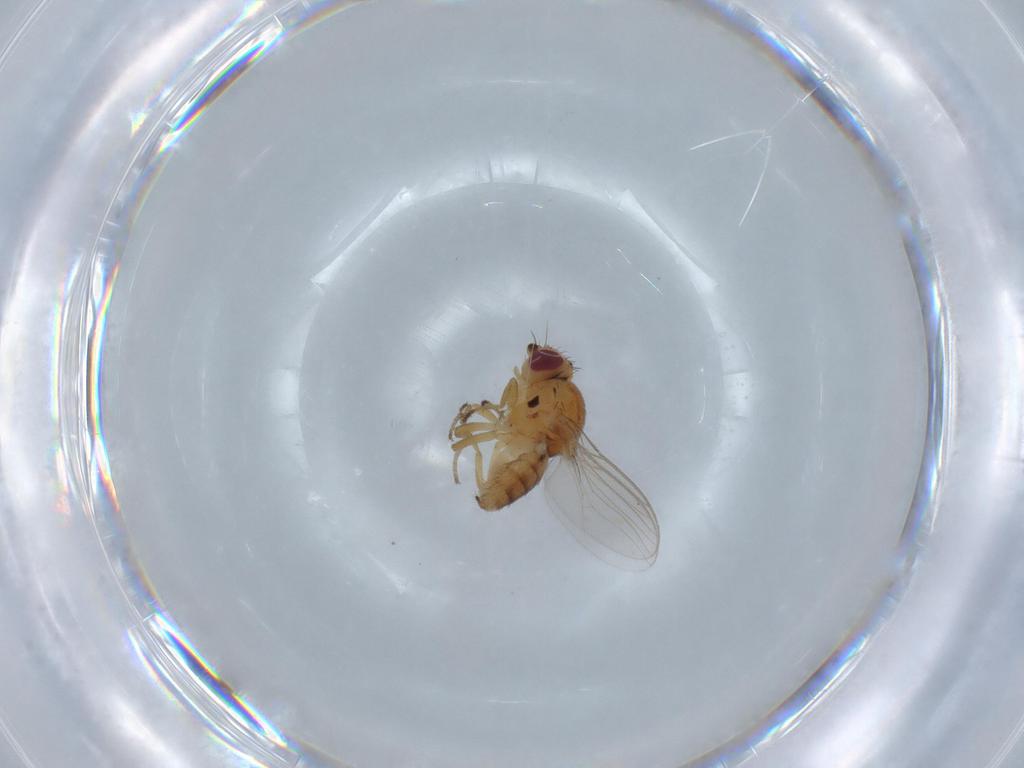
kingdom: Animalia
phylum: Arthropoda
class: Insecta
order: Diptera
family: Chloropidae
